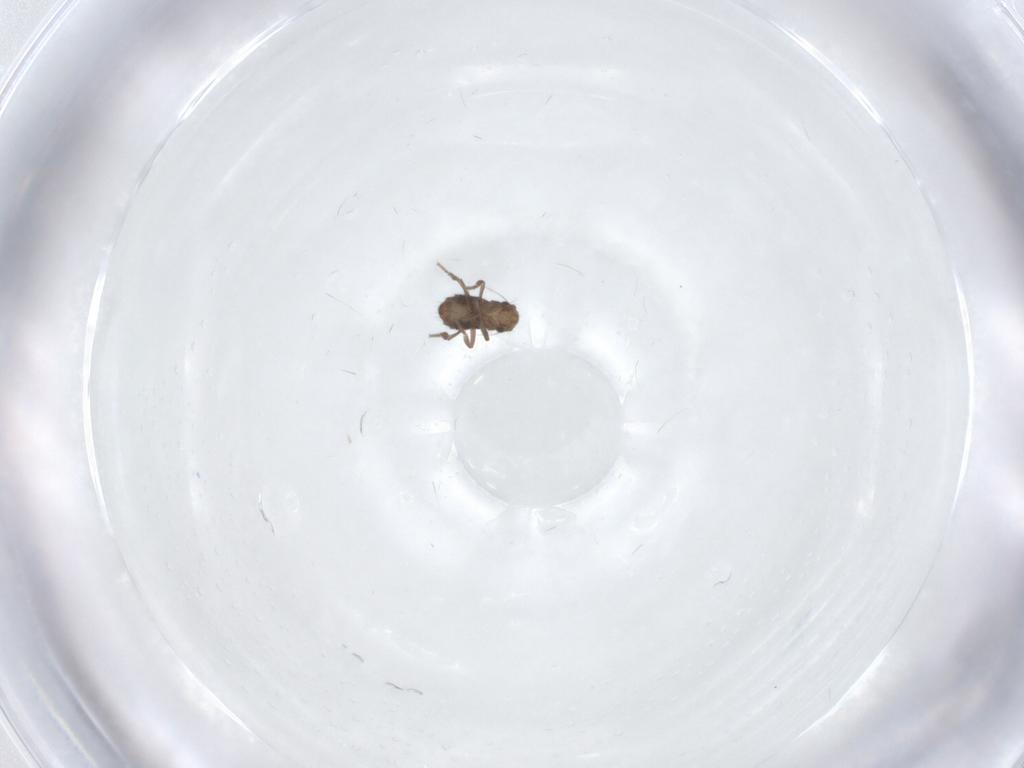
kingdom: Animalia
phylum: Arthropoda
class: Insecta
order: Diptera
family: Phoridae
